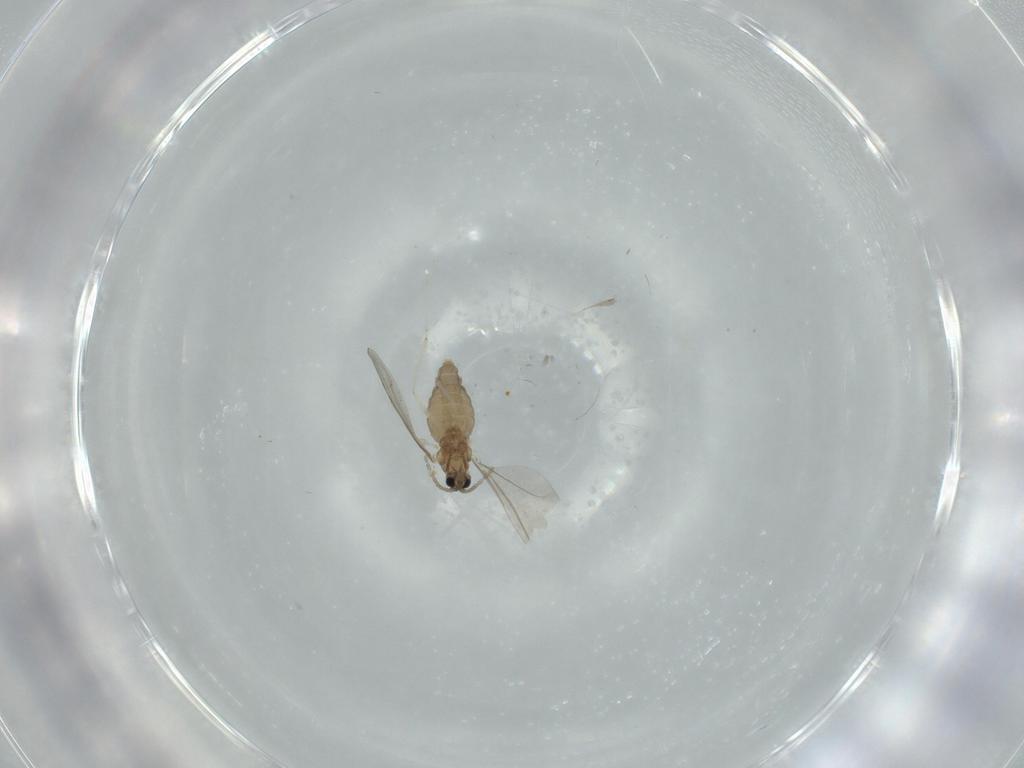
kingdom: Animalia
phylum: Arthropoda
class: Insecta
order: Diptera
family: Cecidomyiidae
